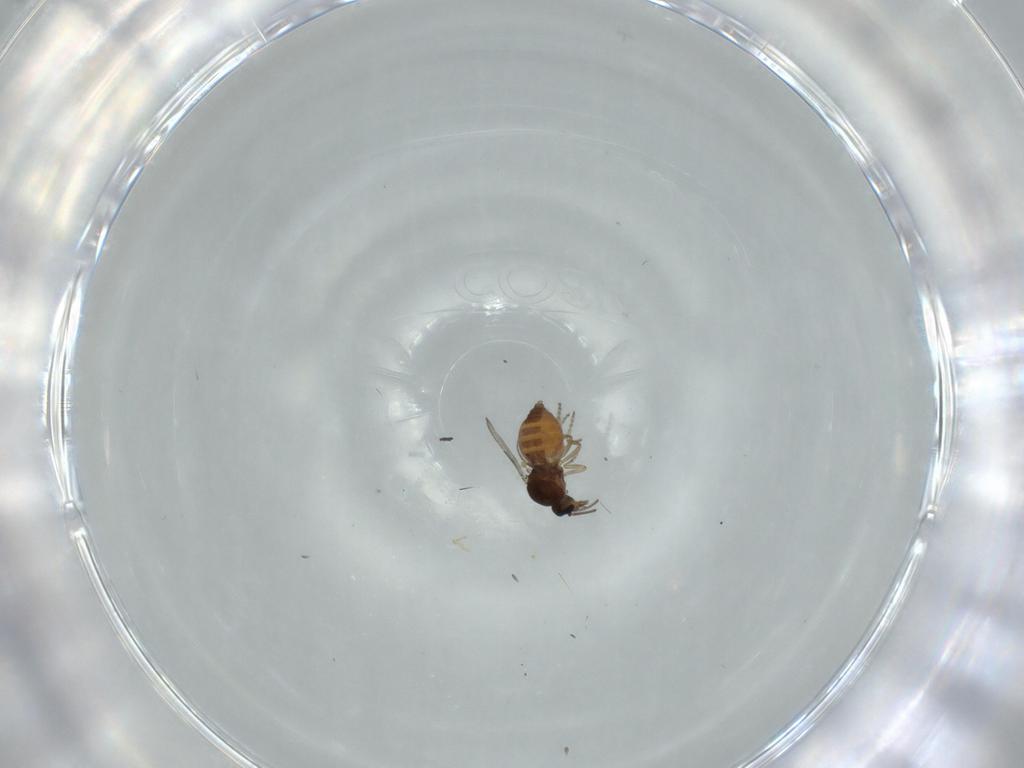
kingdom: Animalia
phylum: Arthropoda
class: Insecta
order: Diptera
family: Ceratopogonidae
